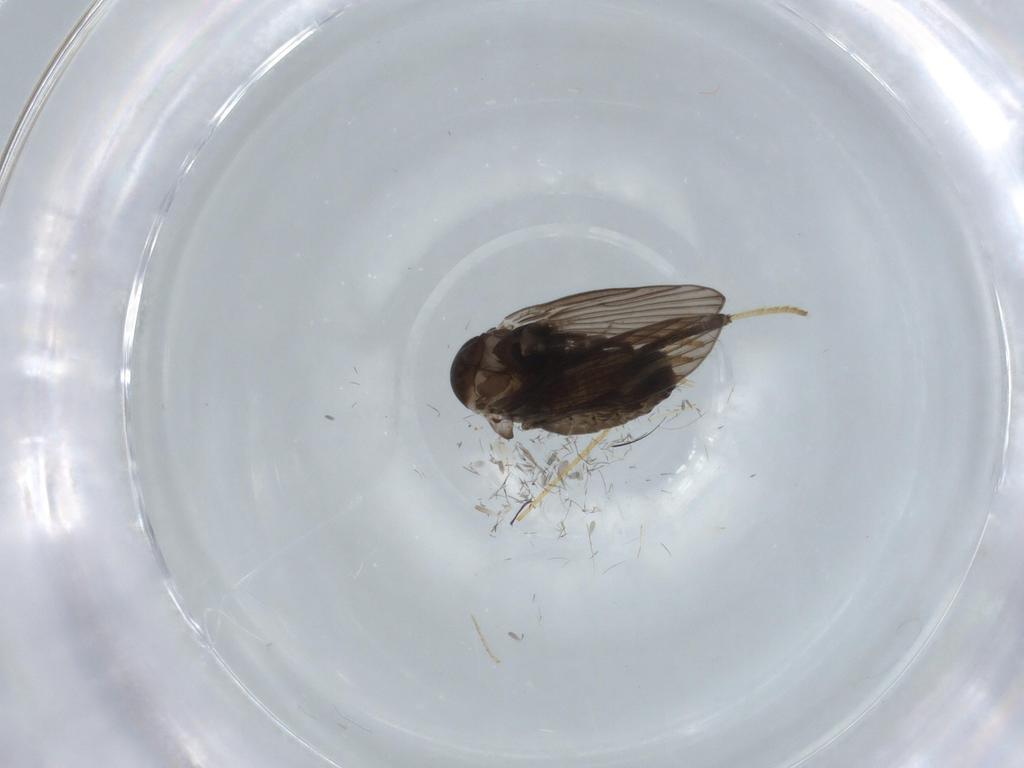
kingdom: Animalia
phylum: Arthropoda
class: Insecta
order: Diptera
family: Psychodidae
